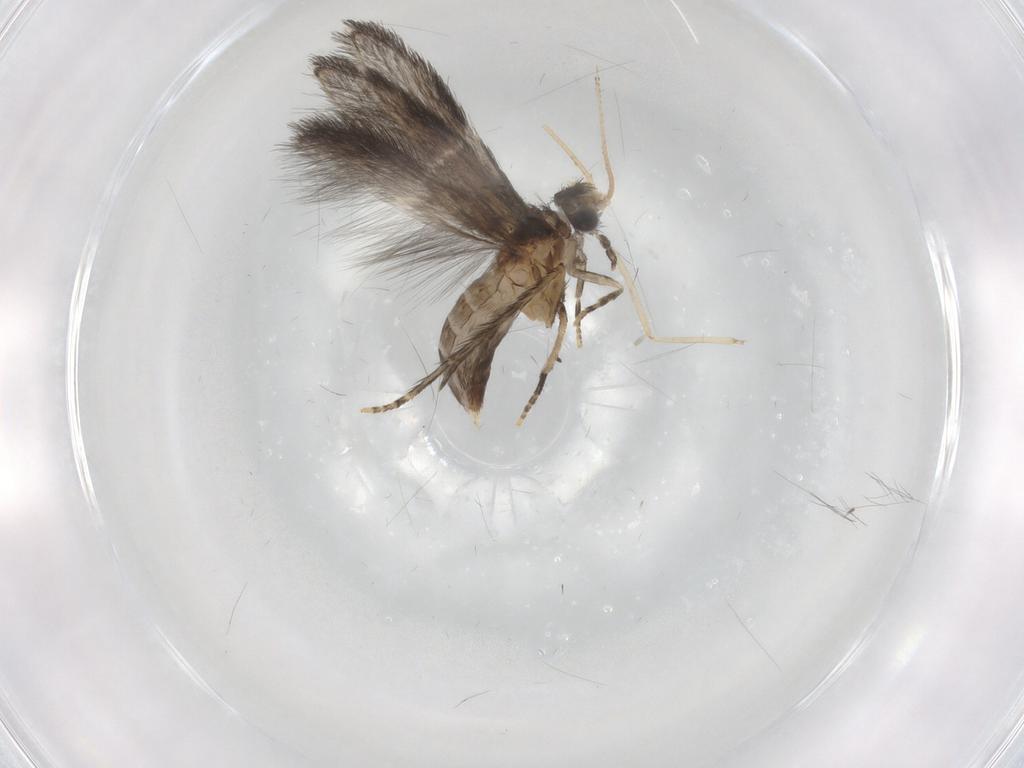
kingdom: Animalia
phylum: Arthropoda
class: Insecta
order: Trichoptera
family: Hydroptilidae
